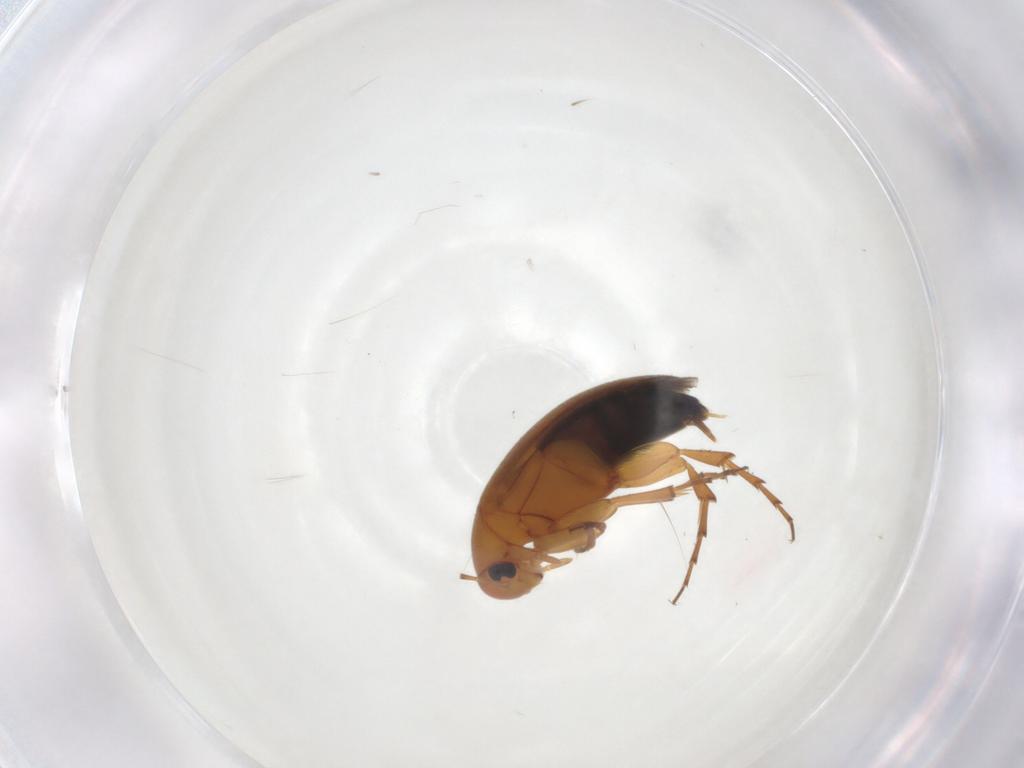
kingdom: Animalia
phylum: Arthropoda
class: Insecta
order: Coleoptera
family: Scraptiidae
